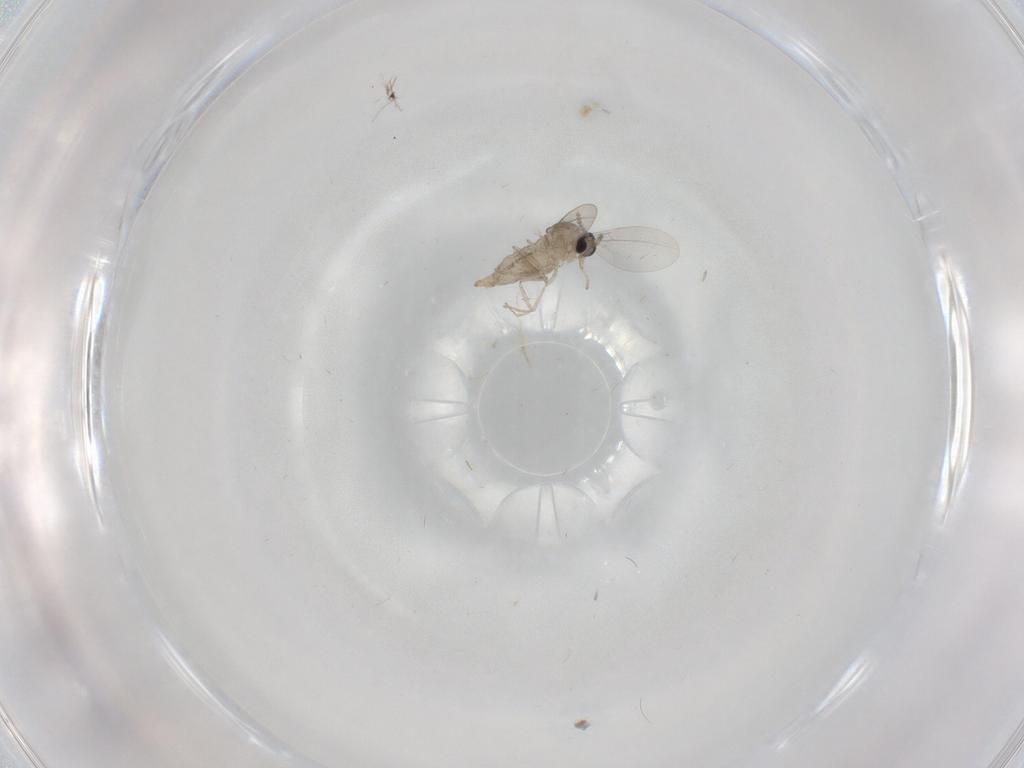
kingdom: Animalia
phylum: Arthropoda
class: Insecta
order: Diptera
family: Cecidomyiidae
